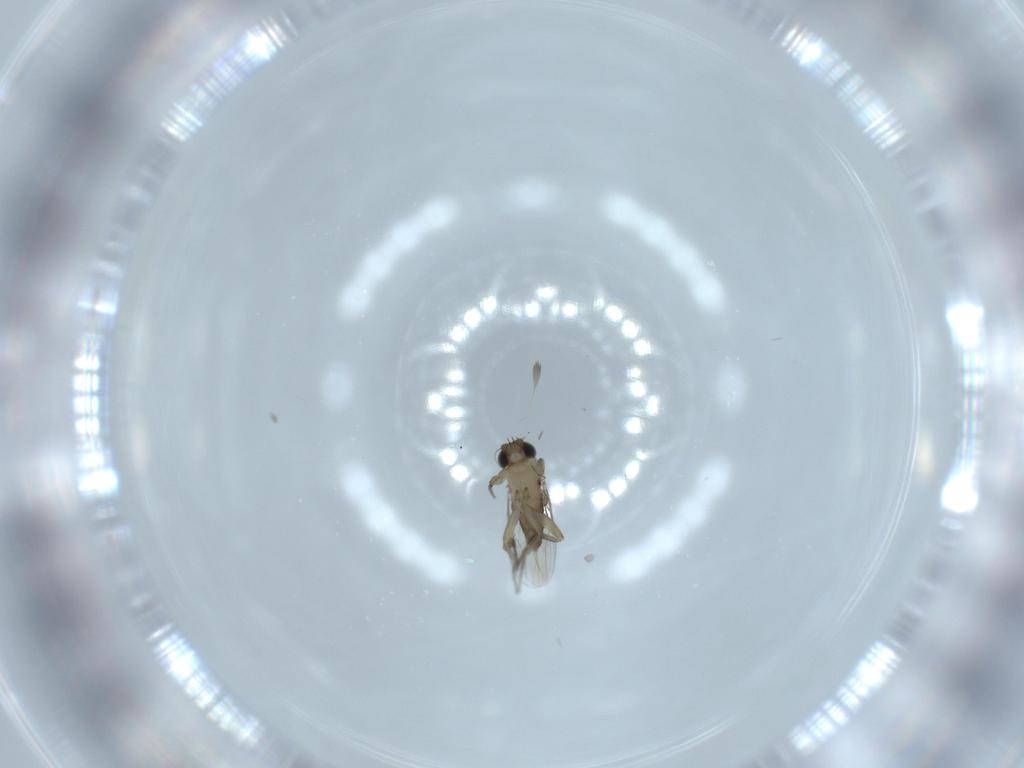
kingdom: Animalia
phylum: Arthropoda
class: Insecta
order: Diptera
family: Phoridae
